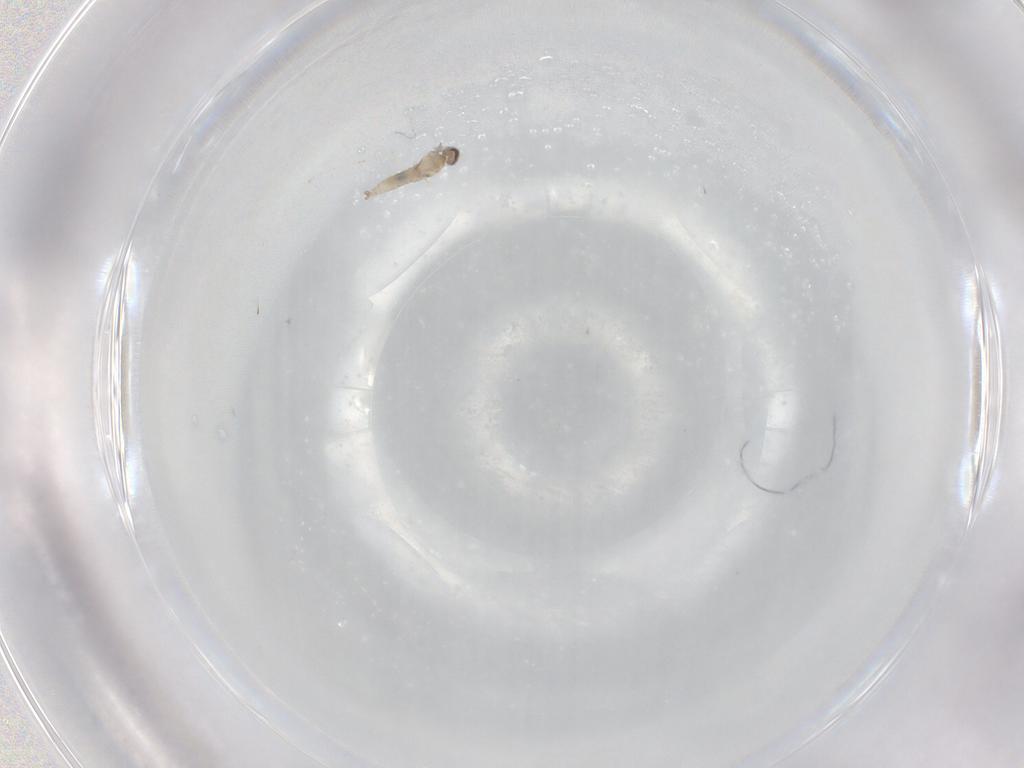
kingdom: Animalia
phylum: Arthropoda
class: Insecta
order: Diptera
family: Cecidomyiidae
